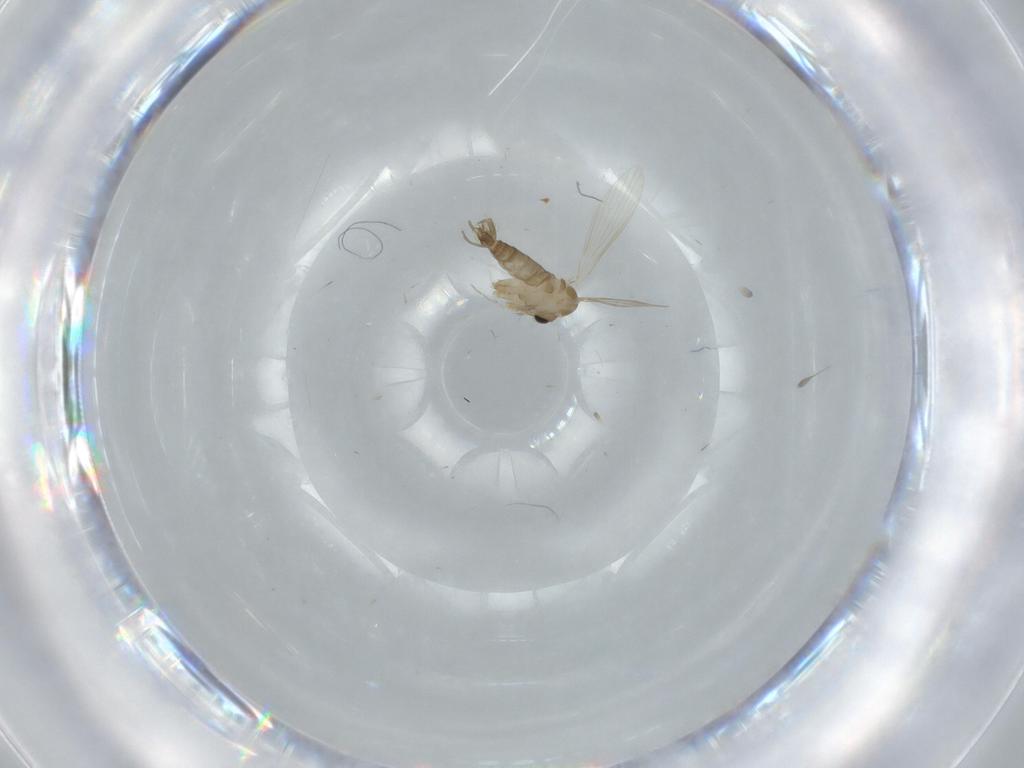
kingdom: Animalia
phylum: Arthropoda
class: Insecta
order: Diptera
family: Psychodidae
